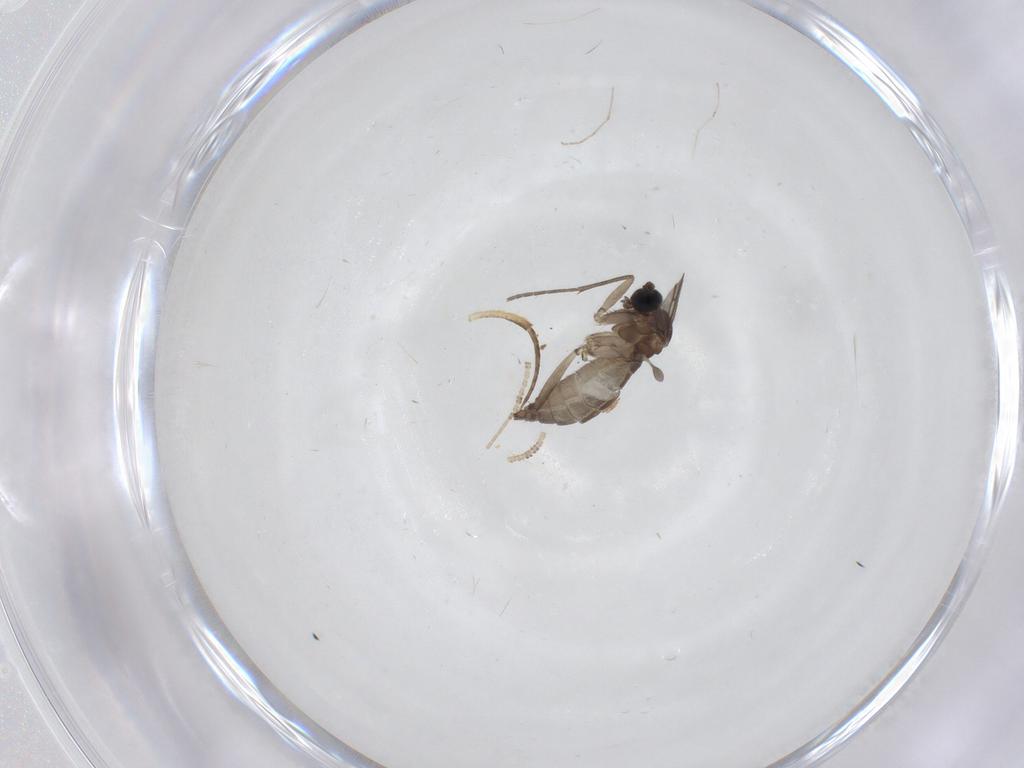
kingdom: Animalia
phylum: Arthropoda
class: Insecta
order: Diptera
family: Sciaridae
